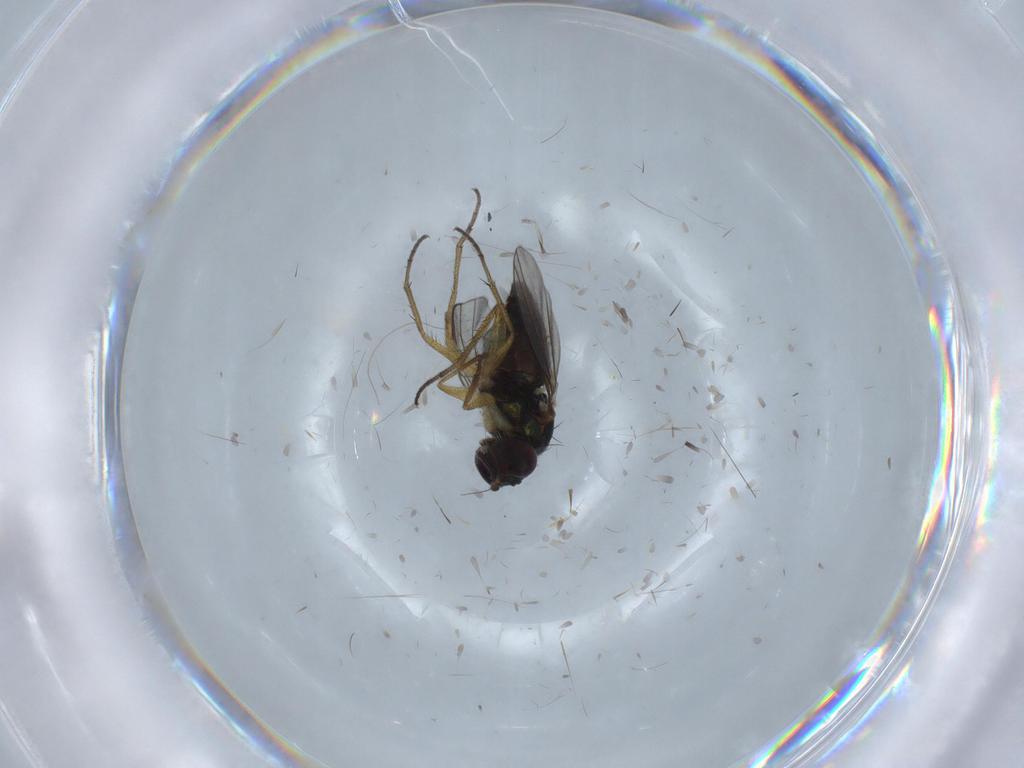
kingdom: Animalia
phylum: Arthropoda
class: Insecta
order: Diptera
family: Dolichopodidae
